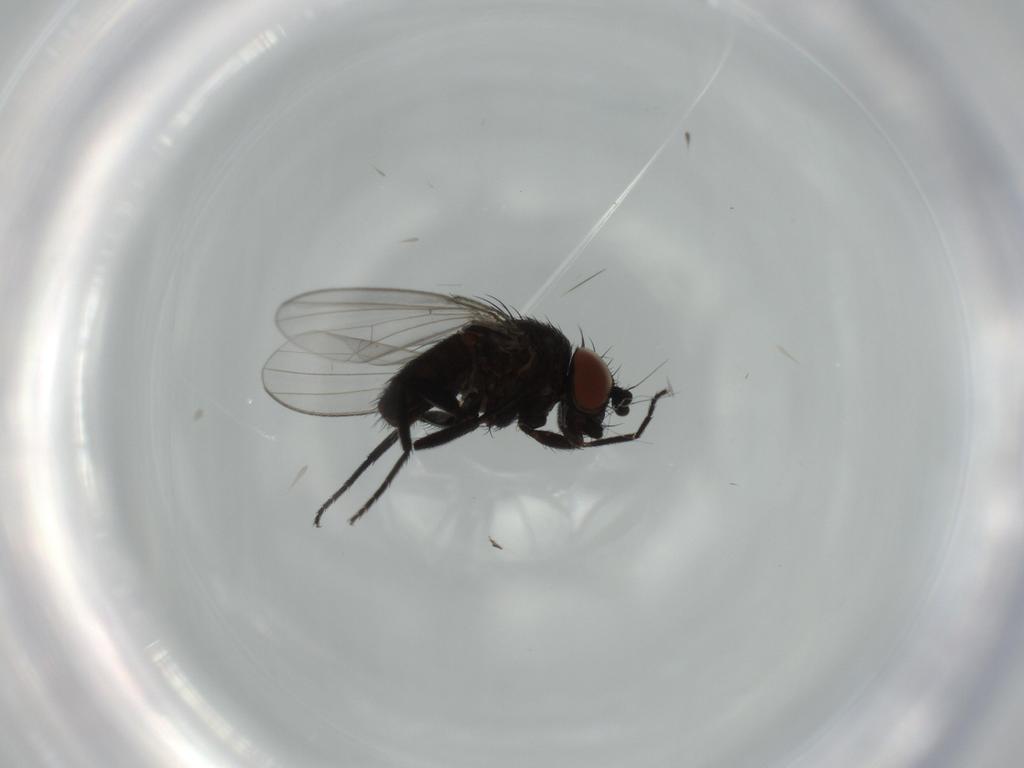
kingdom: Animalia
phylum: Arthropoda
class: Insecta
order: Diptera
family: Milichiidae
